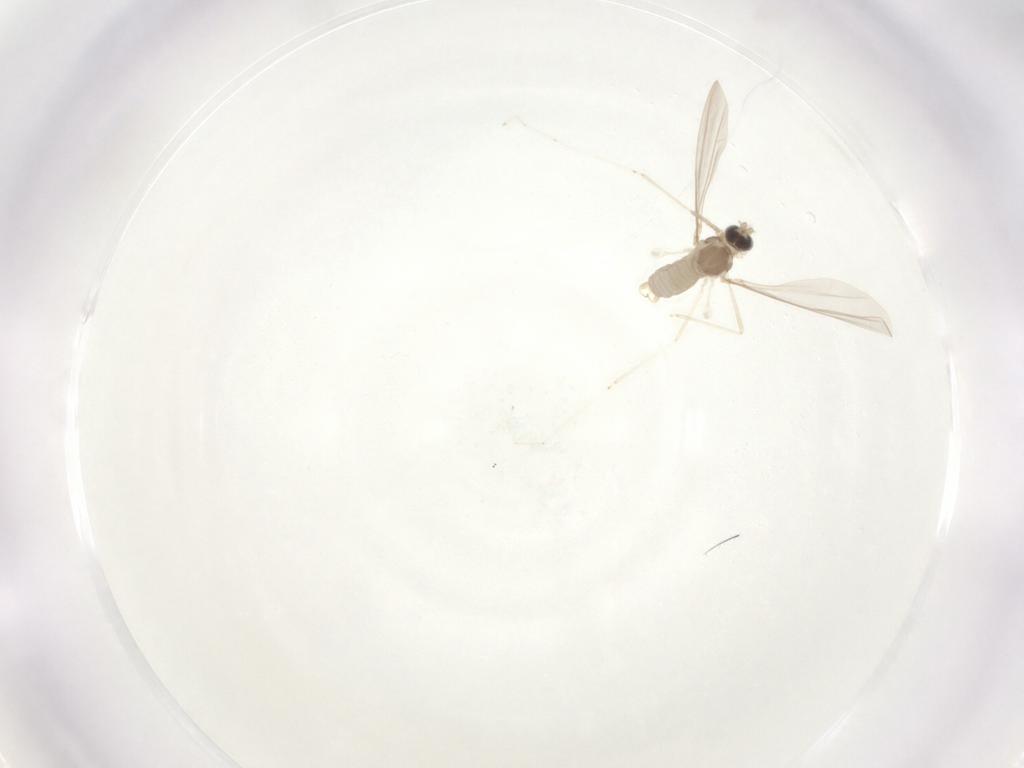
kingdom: Animalia
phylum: Arthropoda
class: Insecta
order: Diptera
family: Cecidomyiidae
